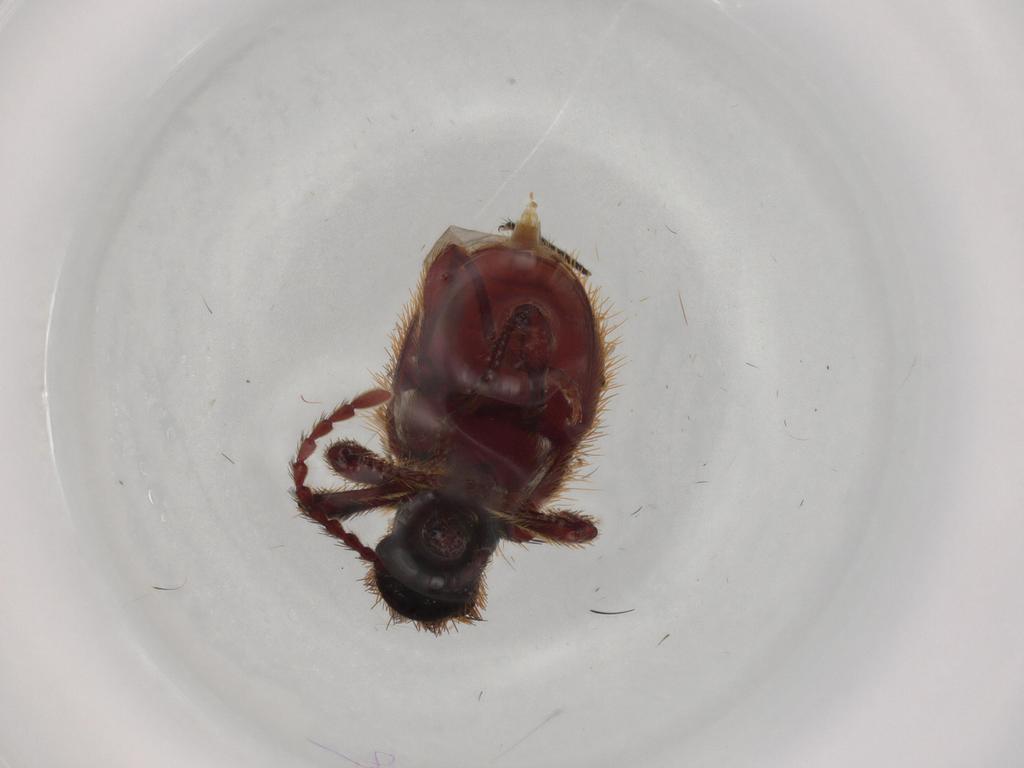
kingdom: Animalia
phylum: Arthropoda
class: Insecta
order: Coleoptera
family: Ptinidae
